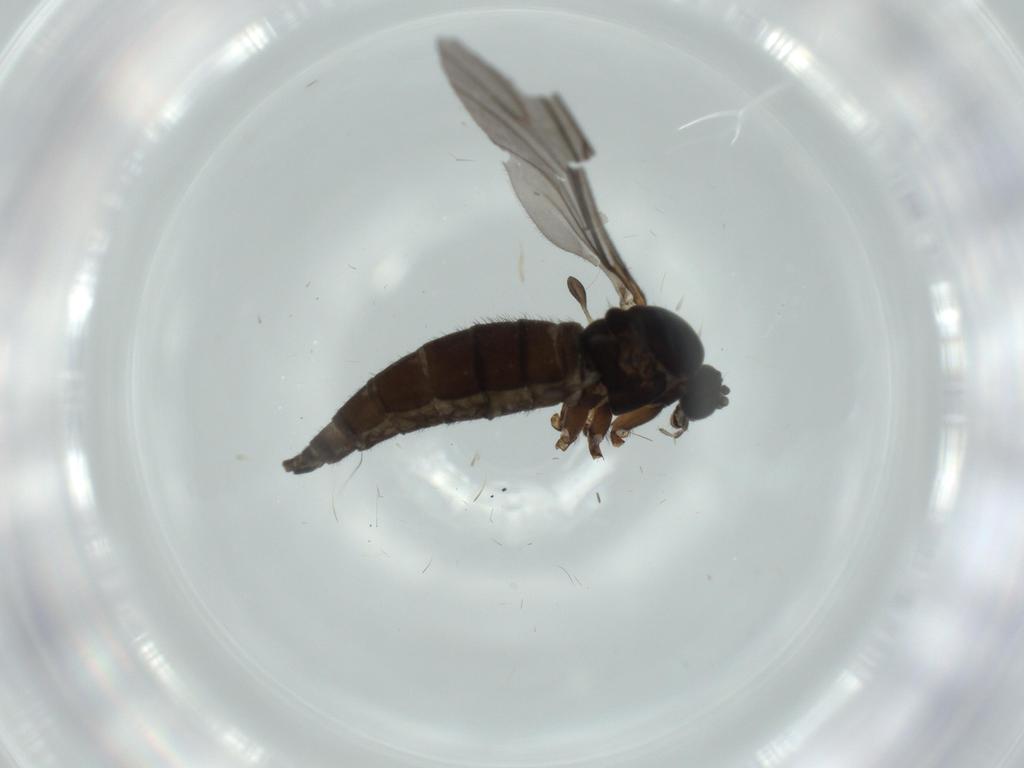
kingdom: Animalia
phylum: Arthropoda
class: Insecta
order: Diptera
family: Sciaridae
